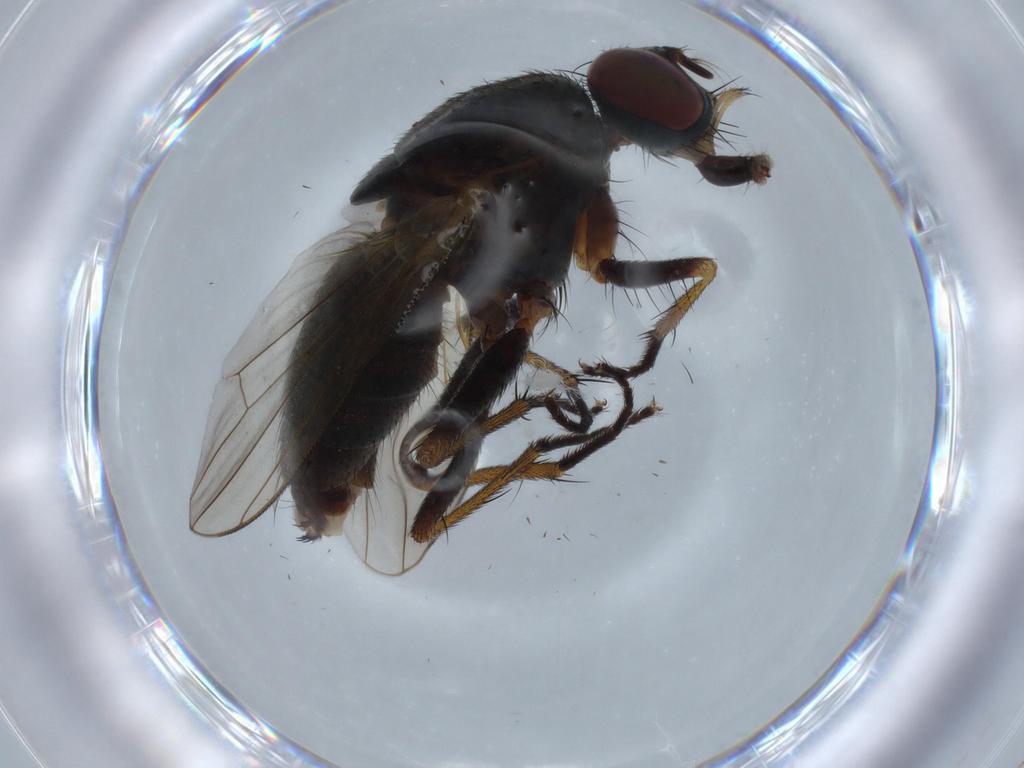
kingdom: Animalia
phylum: Arthropoda
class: Insecta
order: Diptera
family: Muscidae
